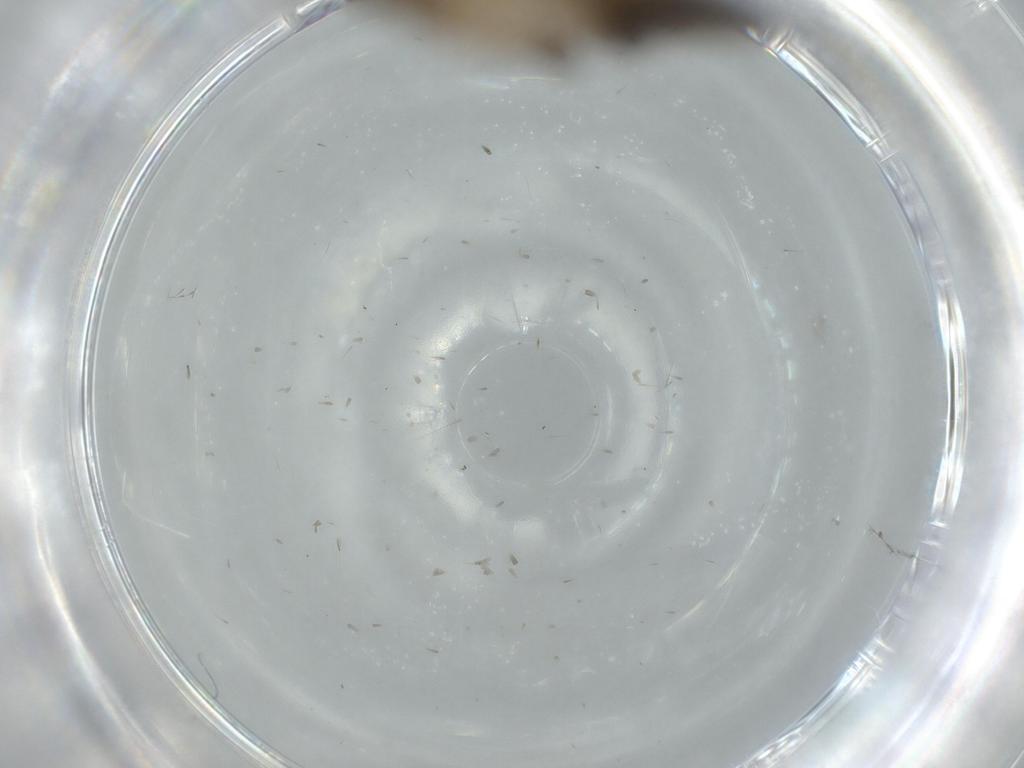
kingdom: Animalia
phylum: Arthropoda
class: Insecta
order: Lepidoptera
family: Tineidae
